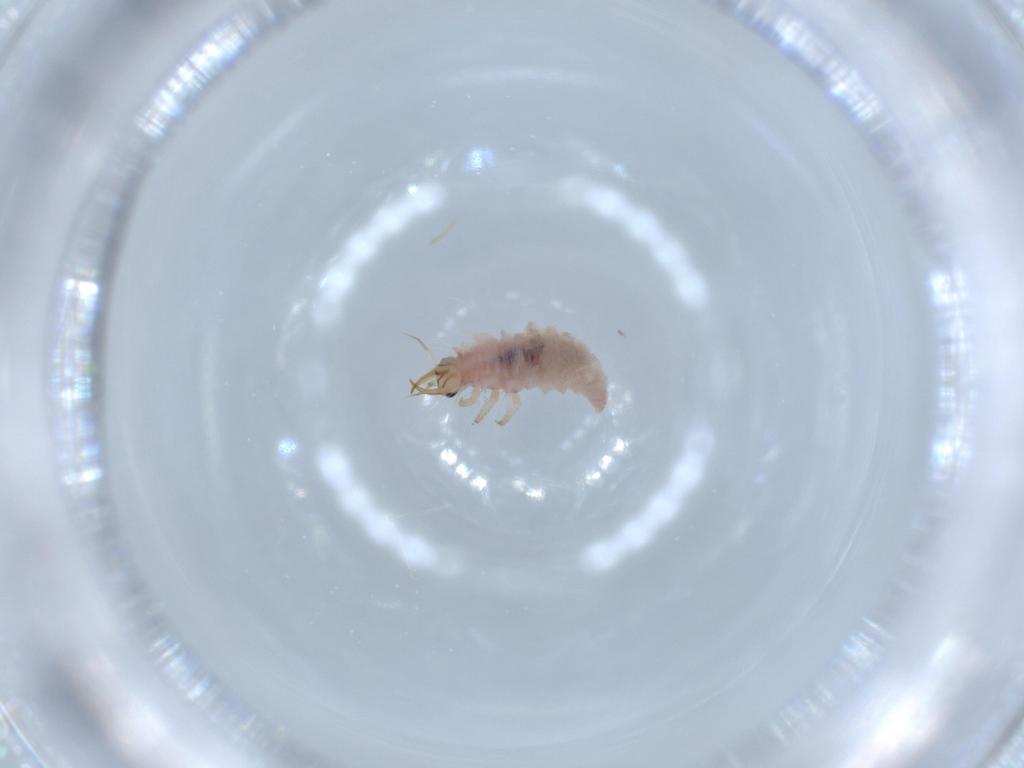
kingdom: Animalia
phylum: Arthropoda
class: Insecta
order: Neuroptera
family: Chrysopidae
